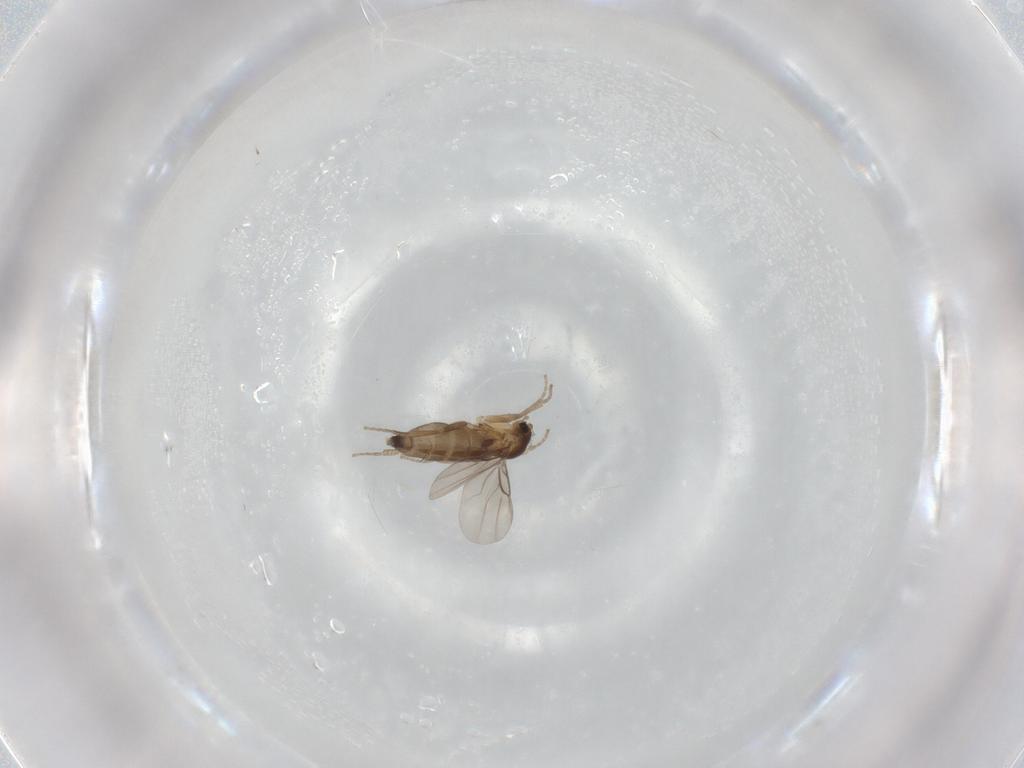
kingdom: Animalia
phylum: Arthropoda
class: Insecta
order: Diptera
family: Phoridae
